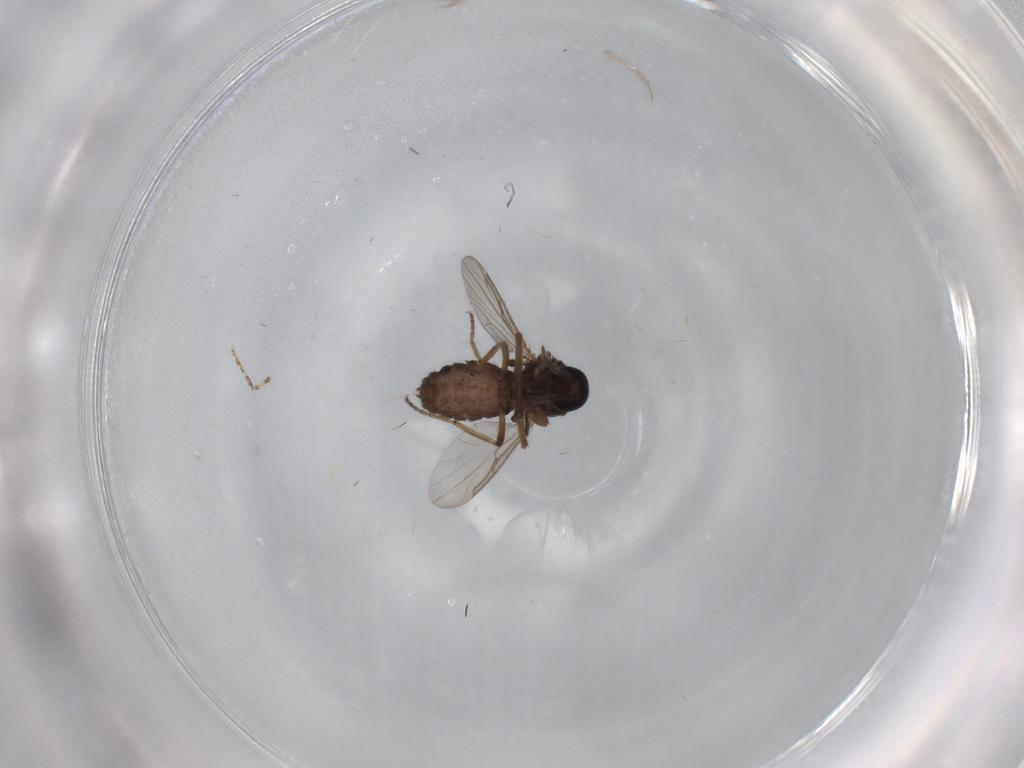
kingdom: Animalia
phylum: Arthropoda
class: Insecta
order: Diptera
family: Ceratopogonidae
